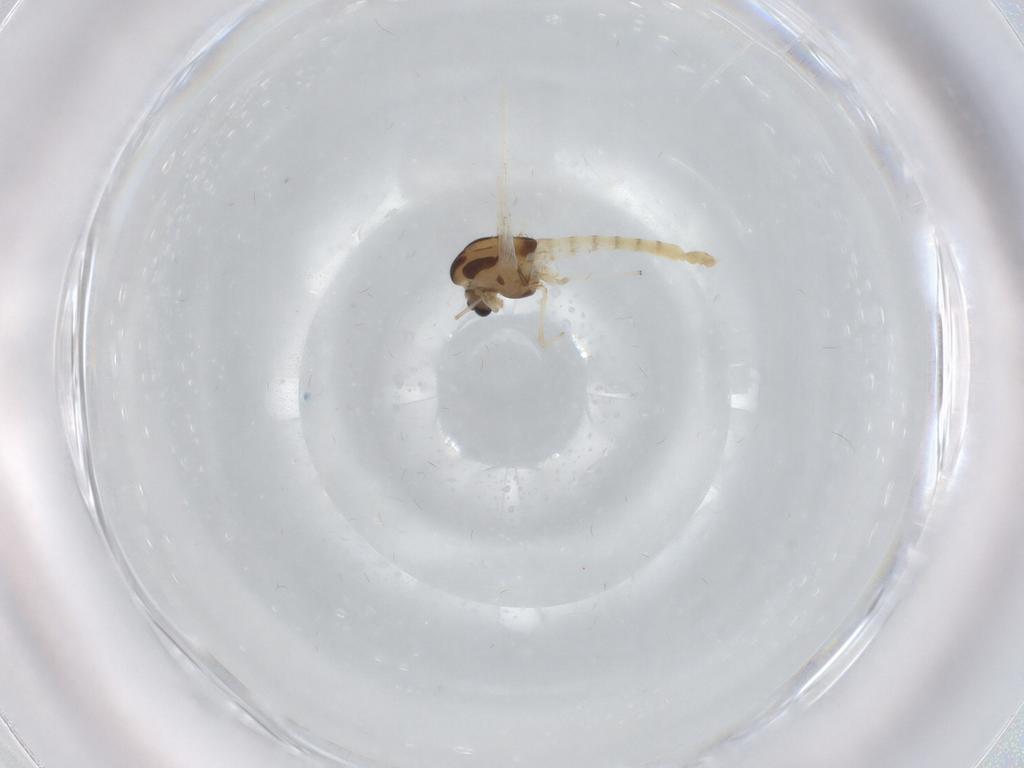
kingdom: Animalia
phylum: Arthropoda
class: Insecta
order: Diptera
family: Chironomidae
